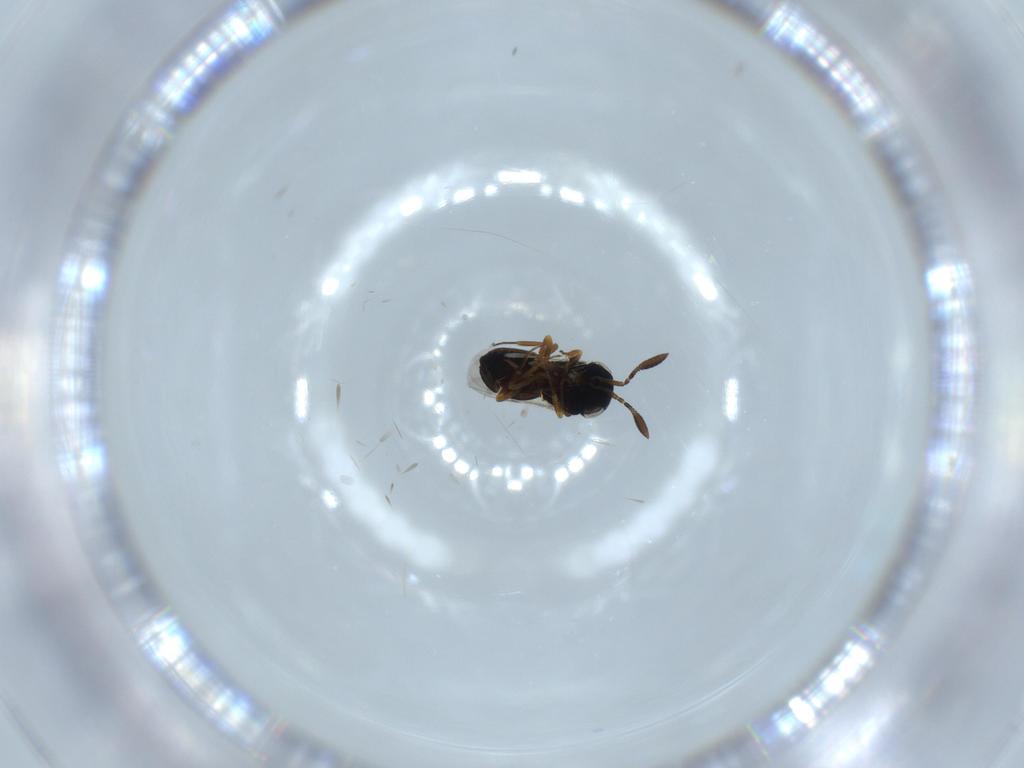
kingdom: Animalia
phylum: Arthropoda
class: Insecta
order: Hymenoptera
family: Scelionidae
